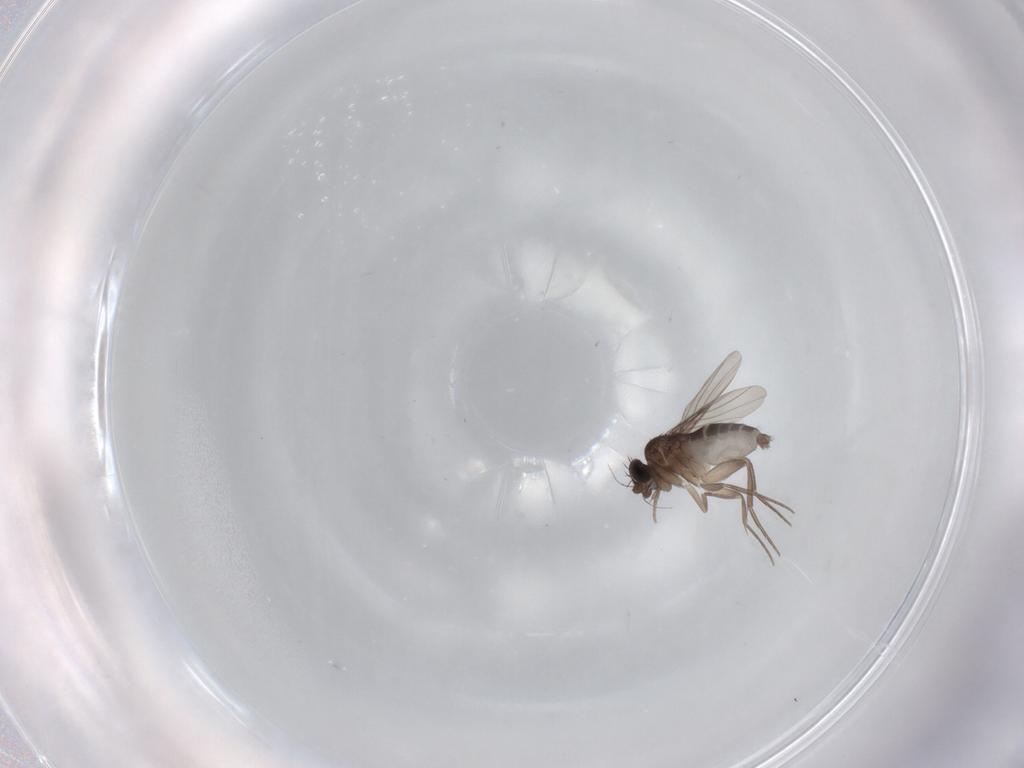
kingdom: Animalia
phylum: Arthropoda
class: Insecta
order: Diptera
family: Phoridae
